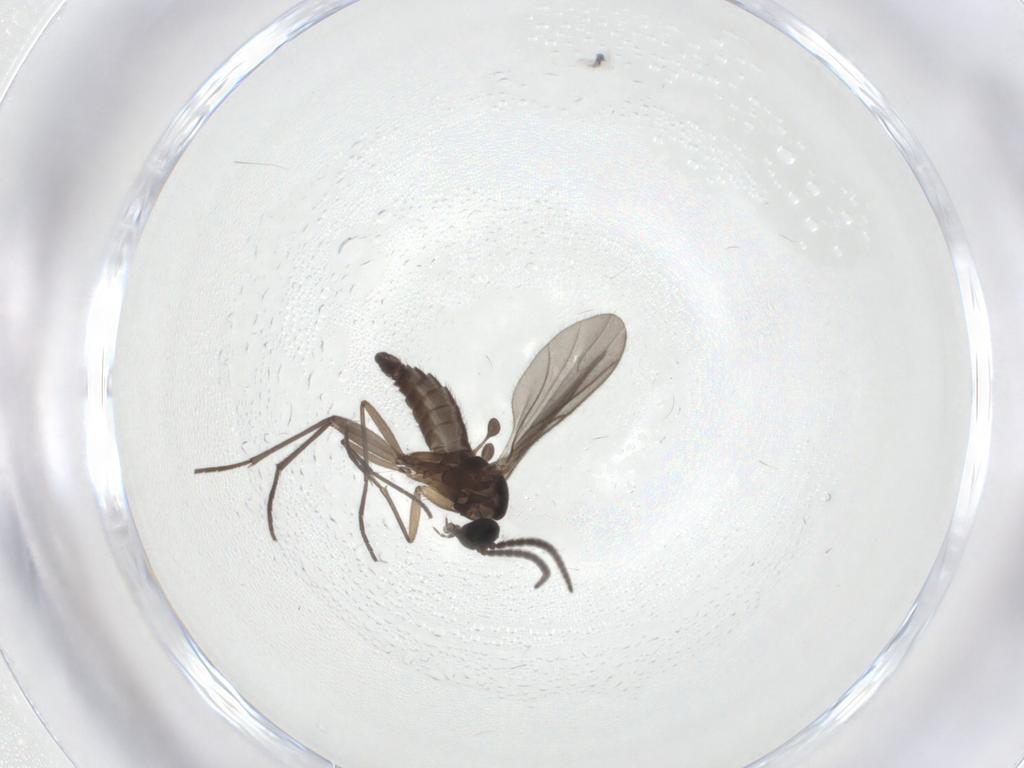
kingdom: Animalia
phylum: Arthropoda
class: Insecta
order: Diptera
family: Sciaridae
